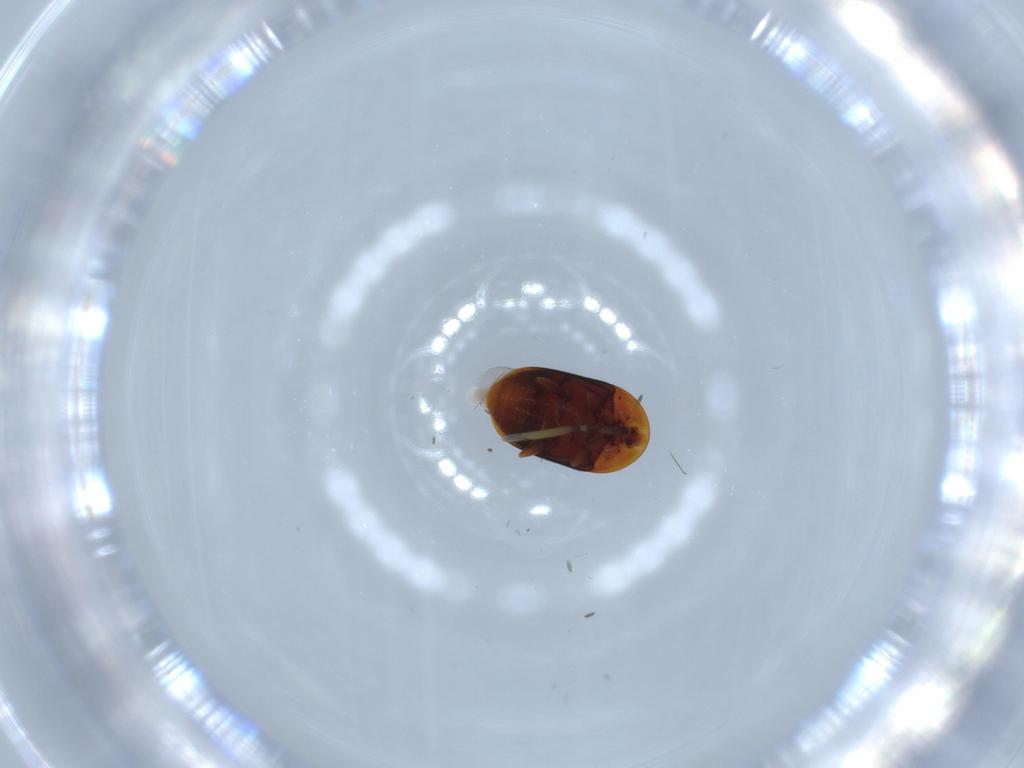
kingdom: Animalia
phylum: Arthropoda
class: Insecta
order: Coleoptera
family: Corylophidae
